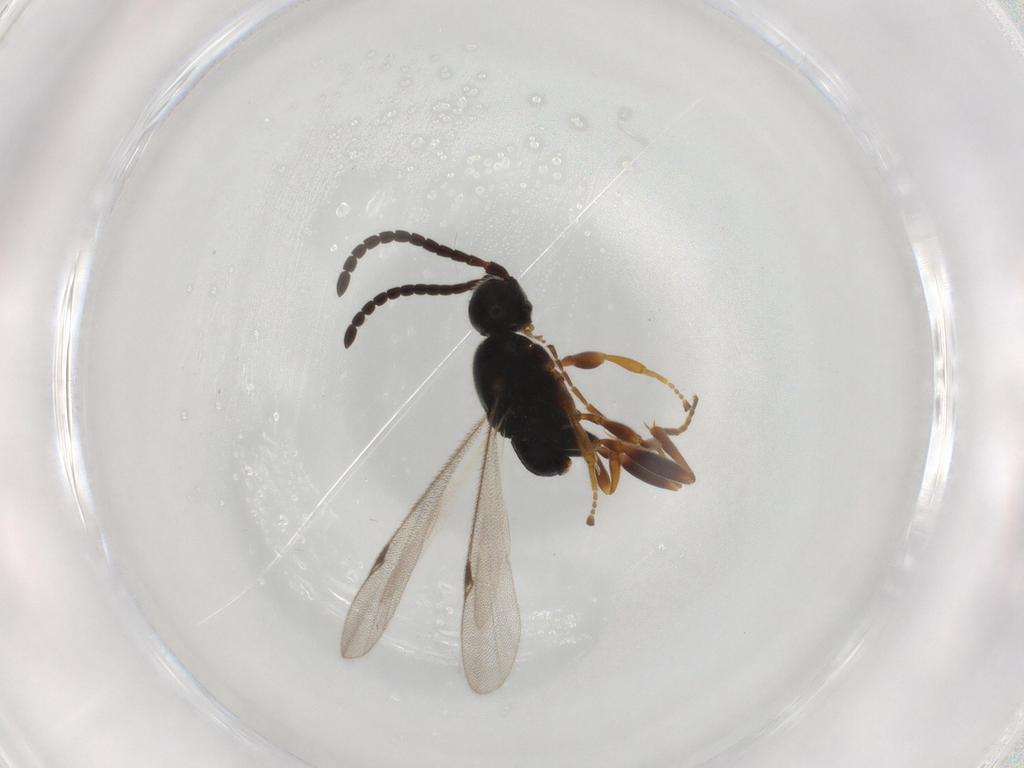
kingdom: Animalia
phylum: Arthropoda
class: Insecta
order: Hymenoptera
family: Proctotrupidae
